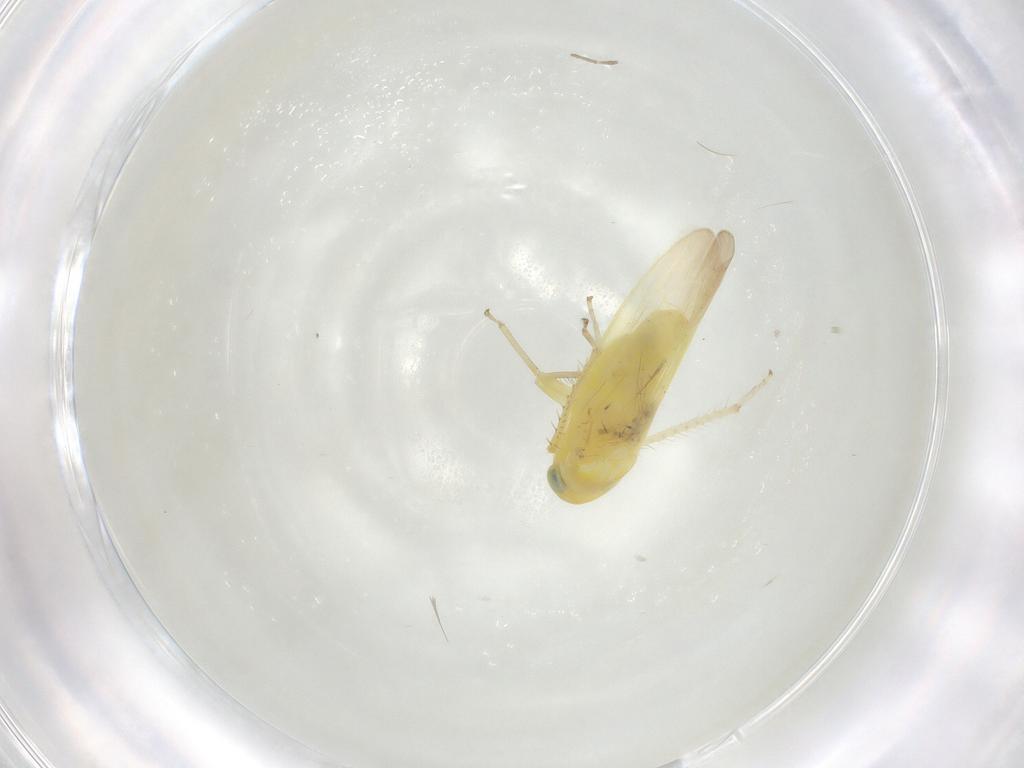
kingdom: Animalia
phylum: Arthropoda
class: Insecta
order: Hemiptera
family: Cicadellidae
